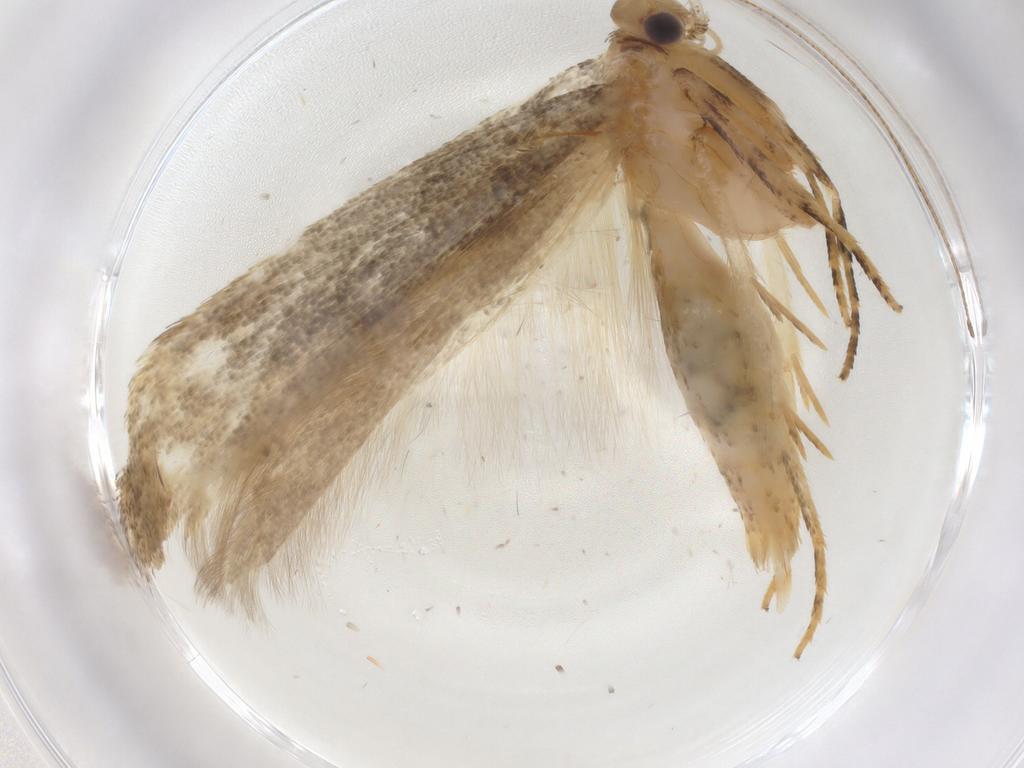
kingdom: Animalia
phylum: Arthropoda
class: Insecta
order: Lepidoptera
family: Gelechiidae
